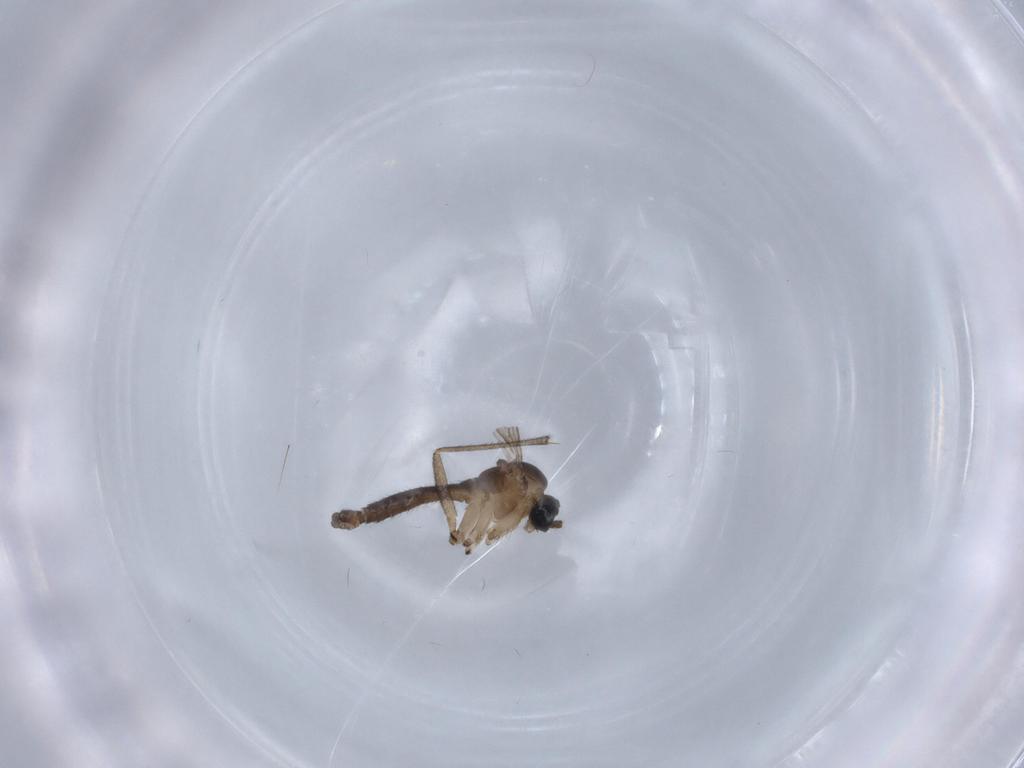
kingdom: Animalia
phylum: Arthropoda
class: Insecta
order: Diptera
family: Sciaridae
